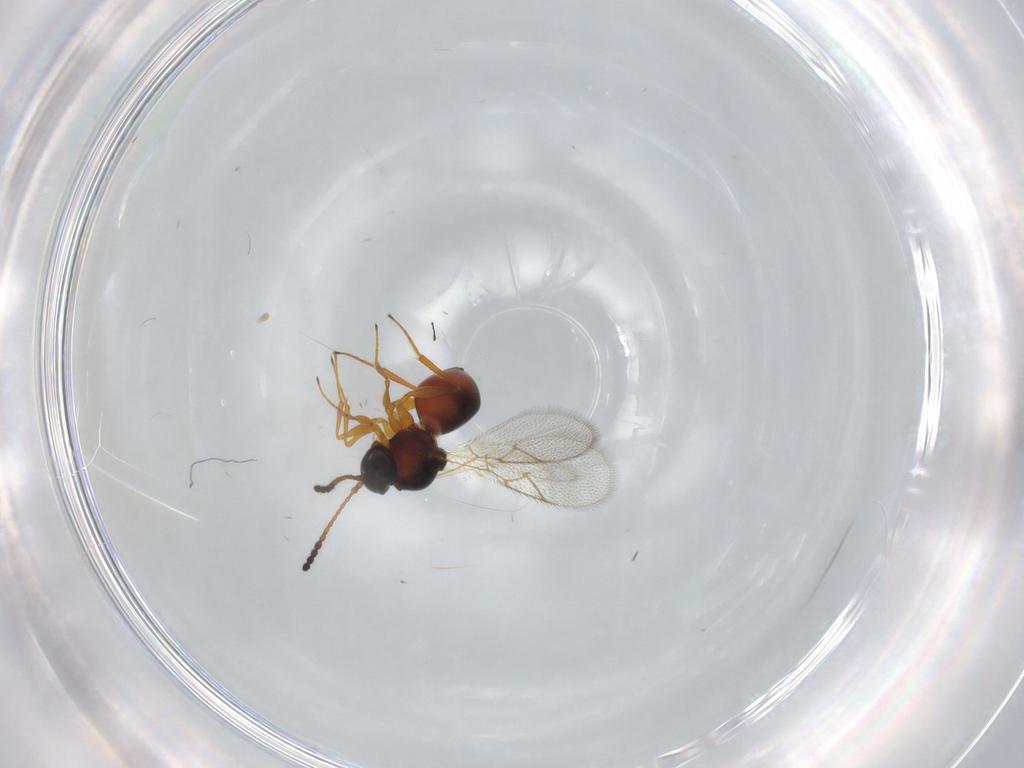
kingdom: Animalia
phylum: Arthropoda
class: Insecta
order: Hymenoptera
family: Figitidae
